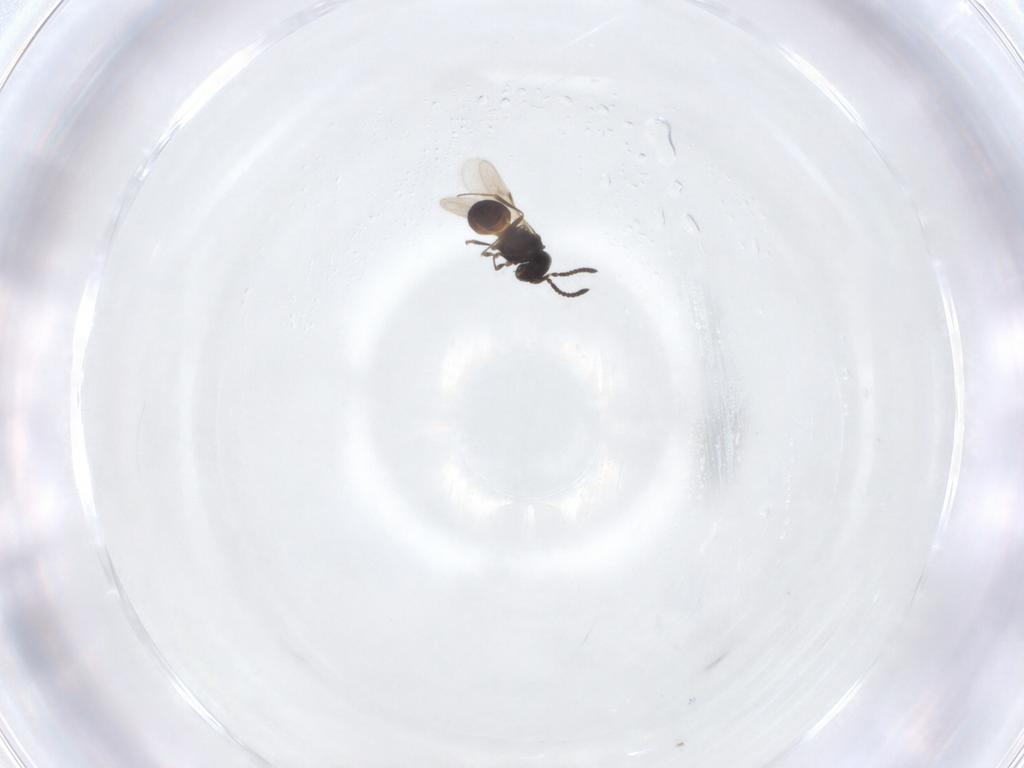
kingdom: Animalia
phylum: Arthropoda
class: Insecta
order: Hymenoptera
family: Scelionidae
